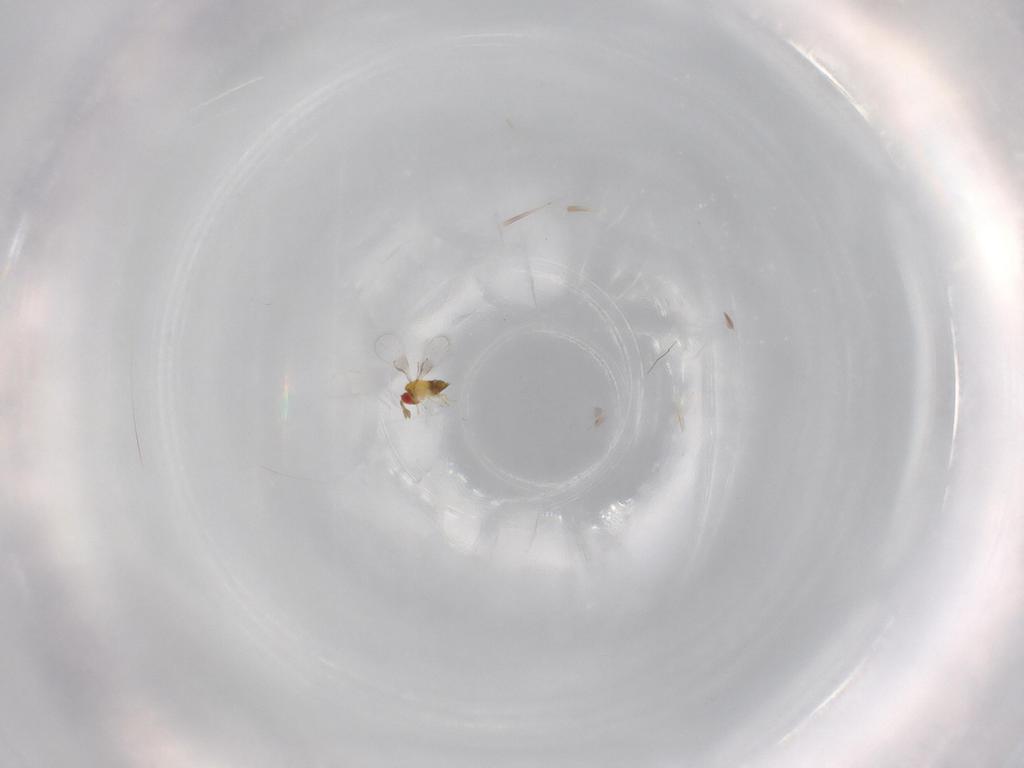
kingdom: Animalia
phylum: Arthropoda
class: Insecta
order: Hymenoptera
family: Trichogrammatidae
